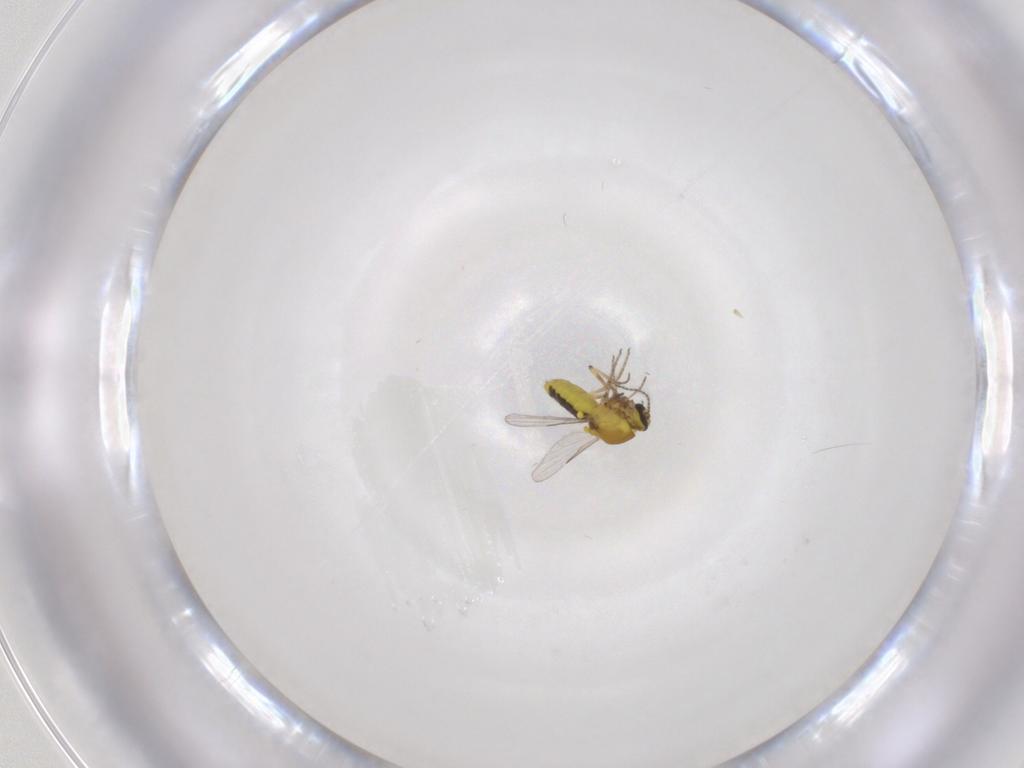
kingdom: Animalia
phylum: Arthropoda
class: Insecta
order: Diptera
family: Ceratopogonidae
